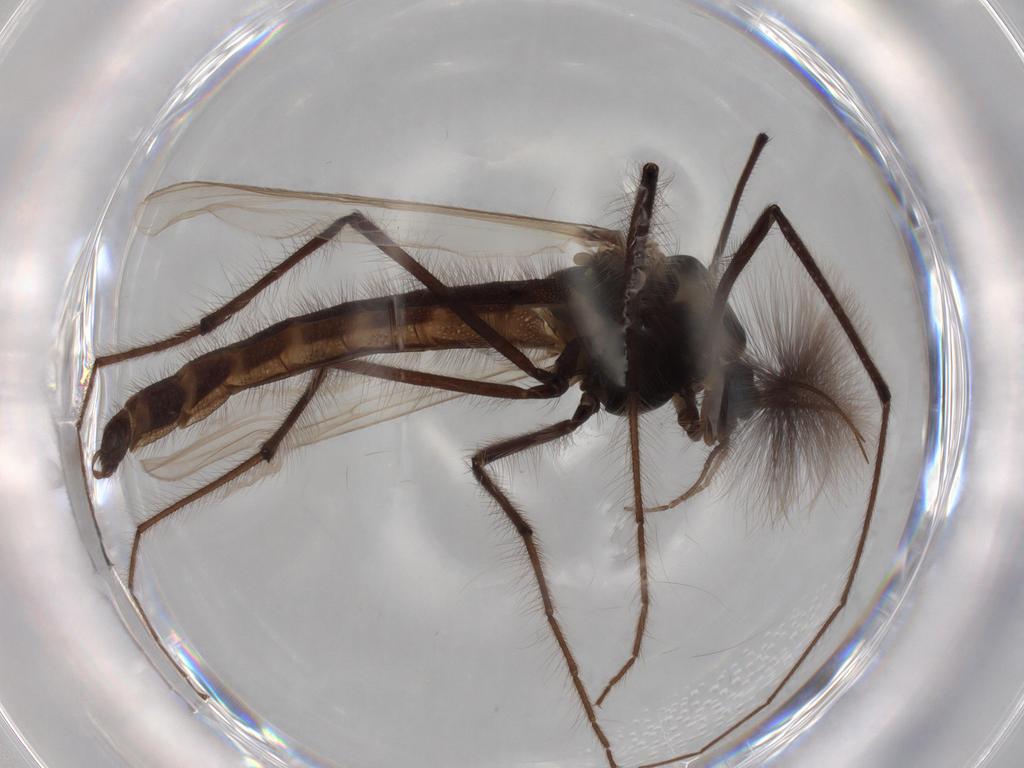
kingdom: Animalia
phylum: Arthropoda
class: Insecta
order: Diptera
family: Chironomidae
